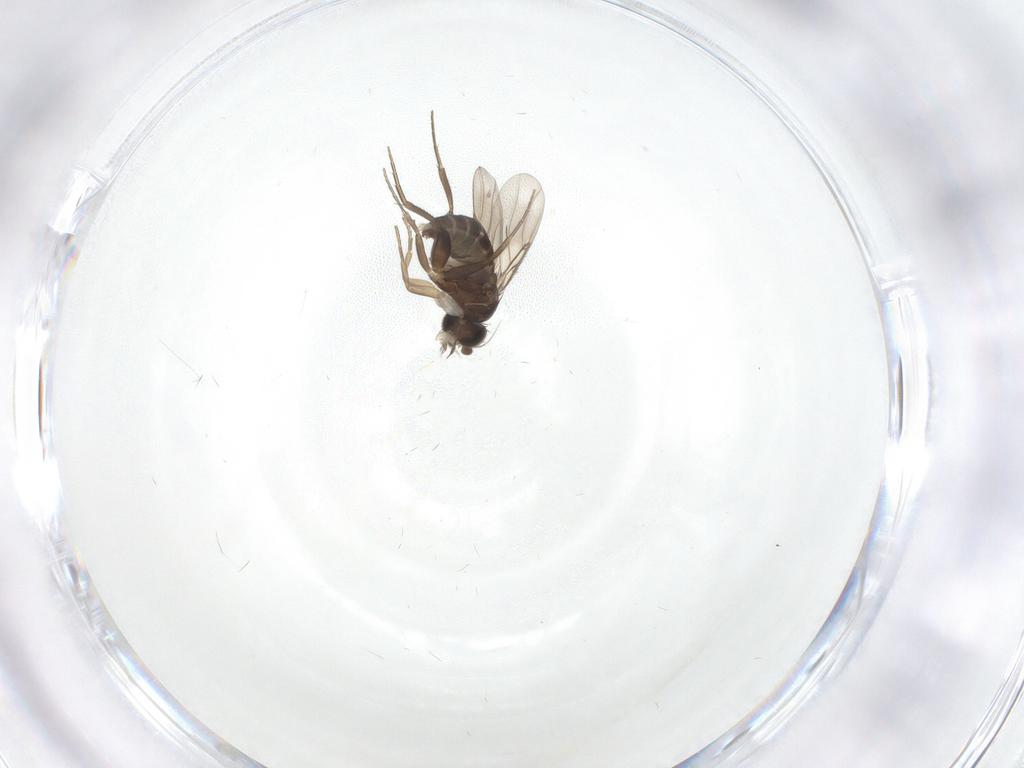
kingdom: Animalia
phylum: Arthropoda
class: Insecta
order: Diptera
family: Phoridae
